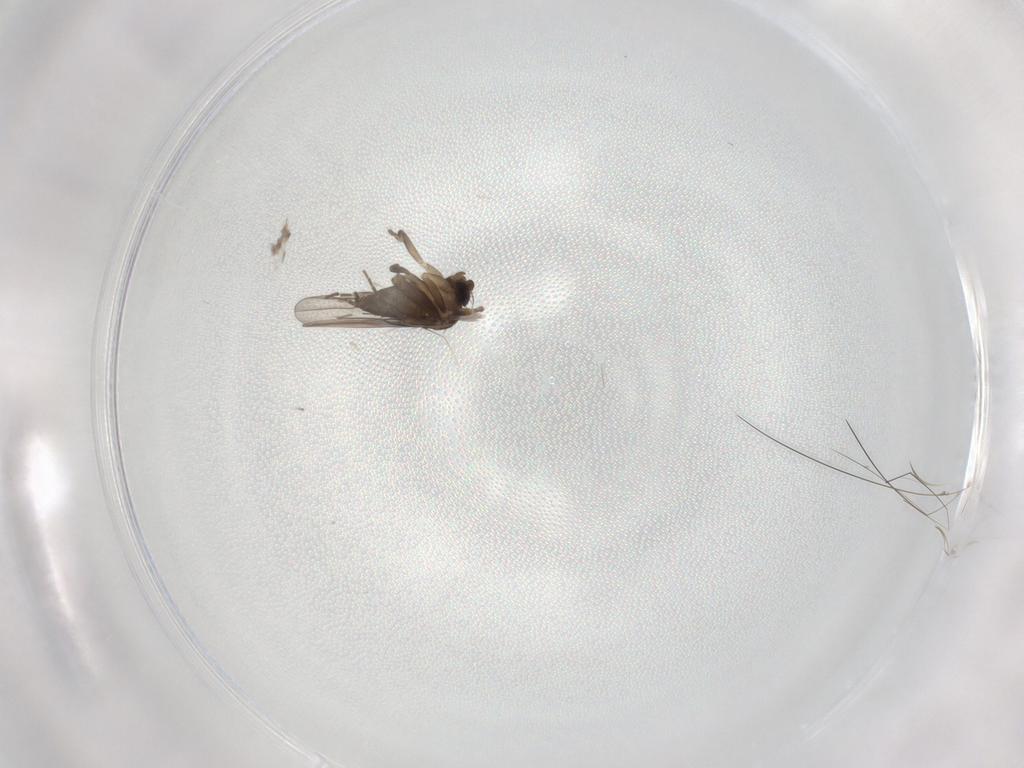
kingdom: Animalia
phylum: Arthropoda
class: Insecta
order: Diptera
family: Phoridae
